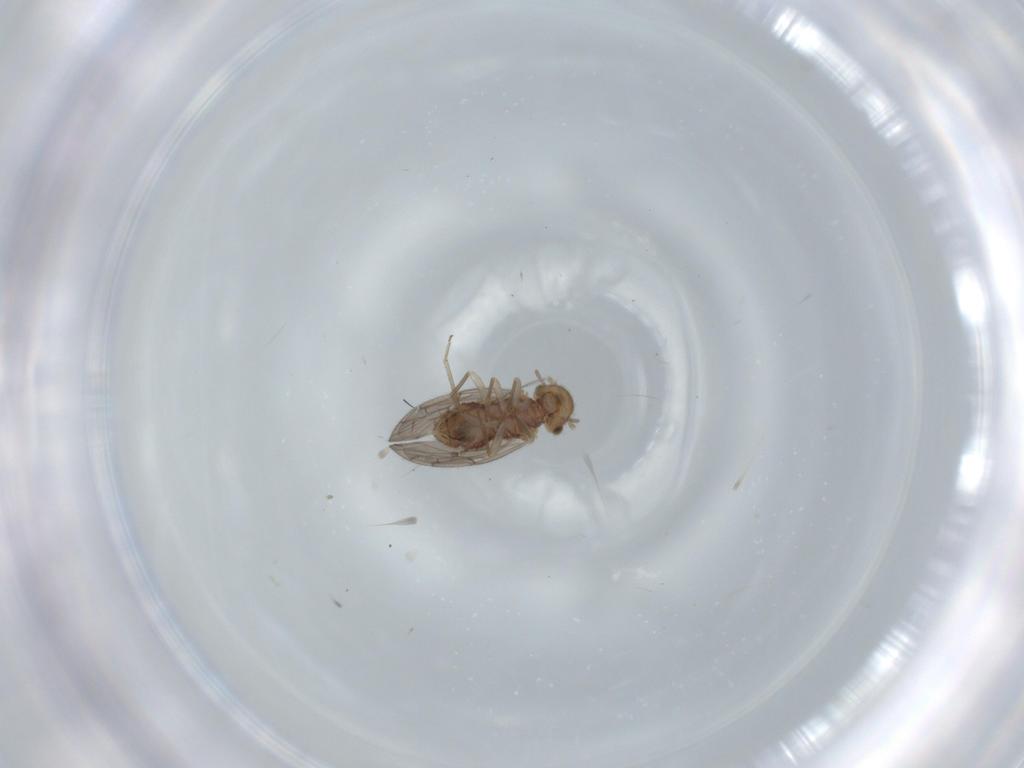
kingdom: Animalia
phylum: Arthropoda
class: Insecta
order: Psocodea
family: Ectopsocidae
